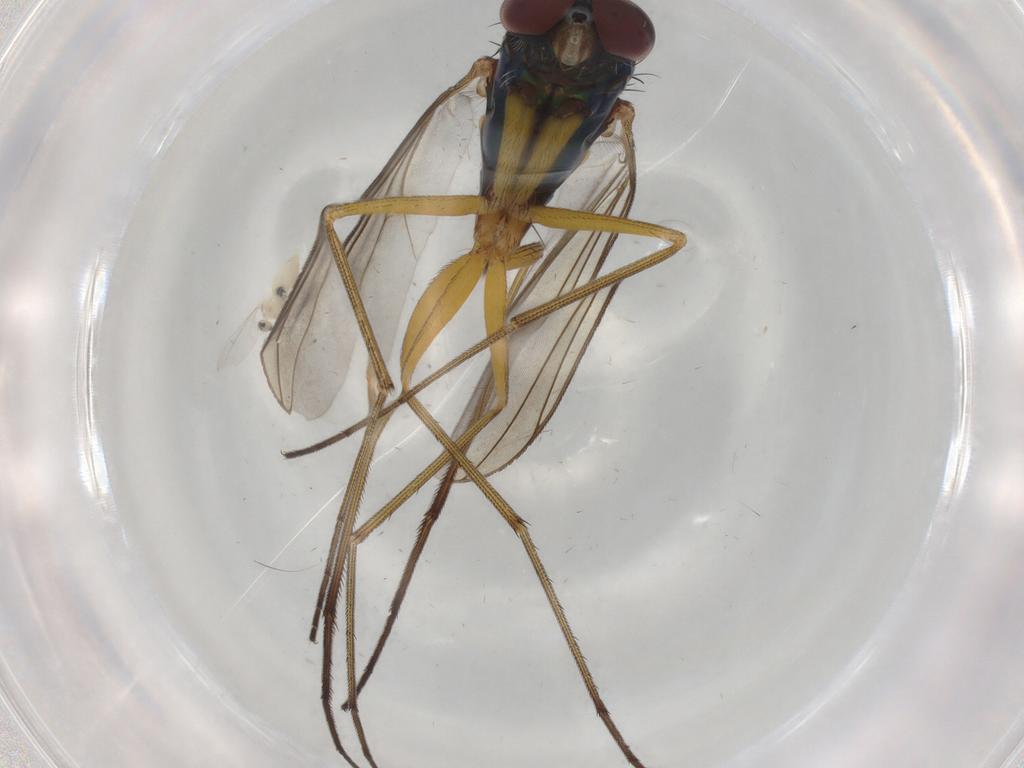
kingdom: Animalia
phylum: Arthropoda
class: Insecta
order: Diptera
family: Dolichopodidae
